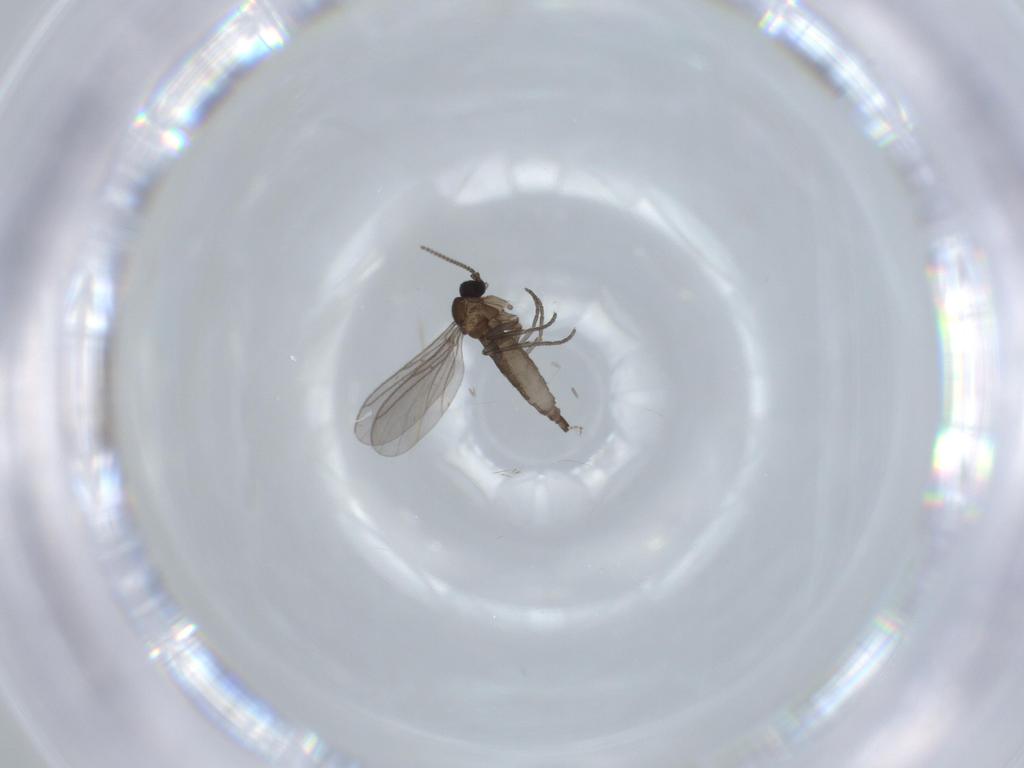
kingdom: Animalia
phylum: Arthropoda
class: Insecta
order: Diptera
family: Cecidomyiidae
